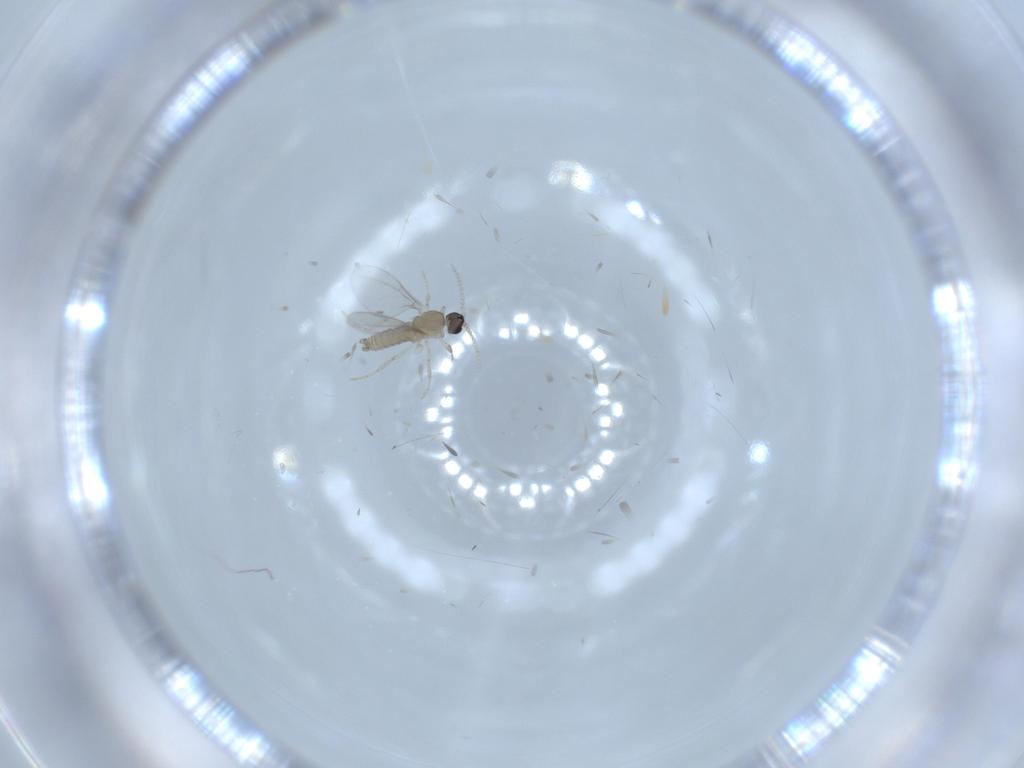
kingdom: Animalia
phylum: Arthropoda
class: Insecta
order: Diptera
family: Cecidomyiidae
